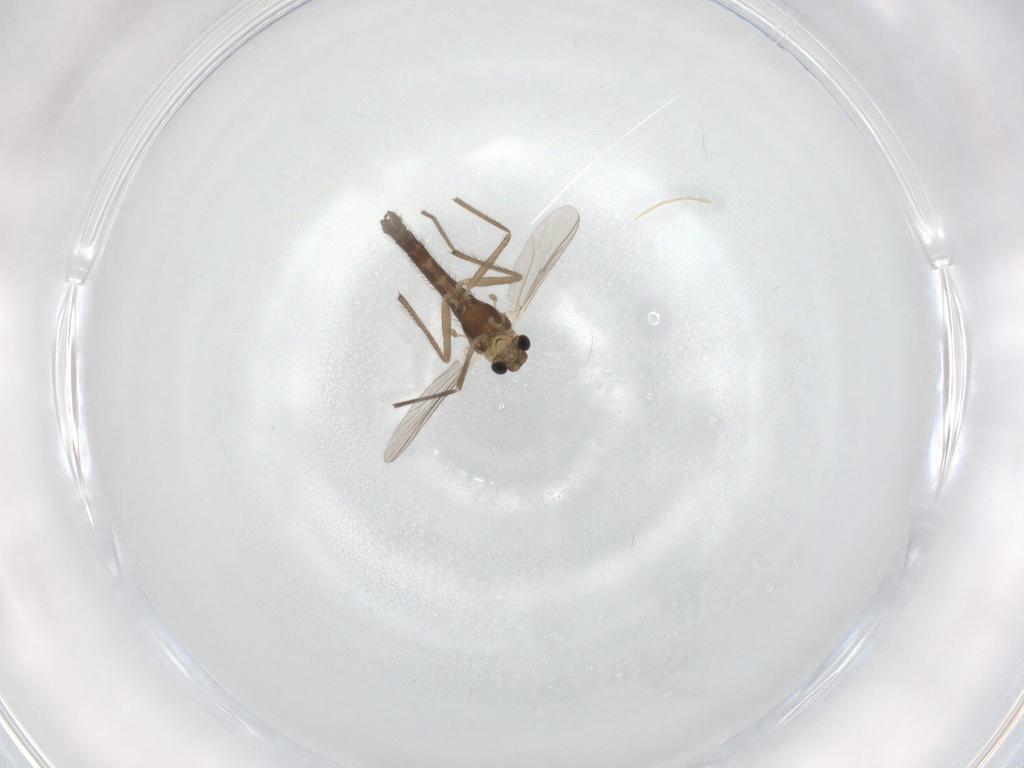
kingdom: Animalia
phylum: Arthropoda
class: Insecta
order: Diptera
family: Chironomidae
